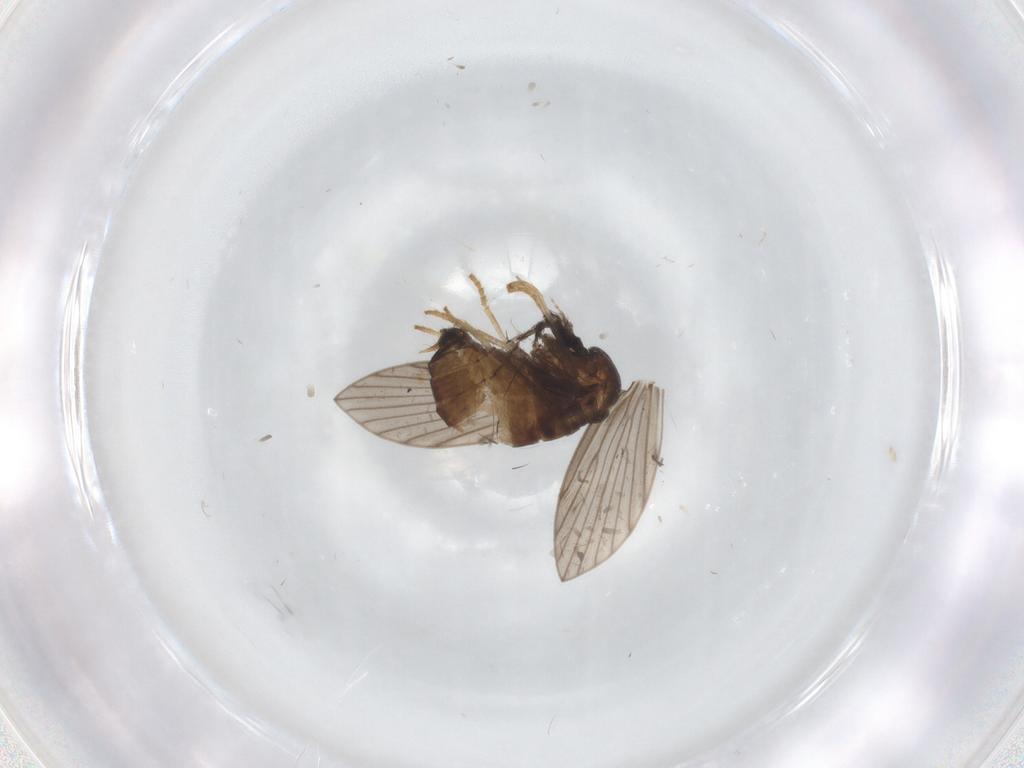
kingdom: Animalia
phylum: Arthropoda
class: Insecta
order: Diptera
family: Psychodidae
